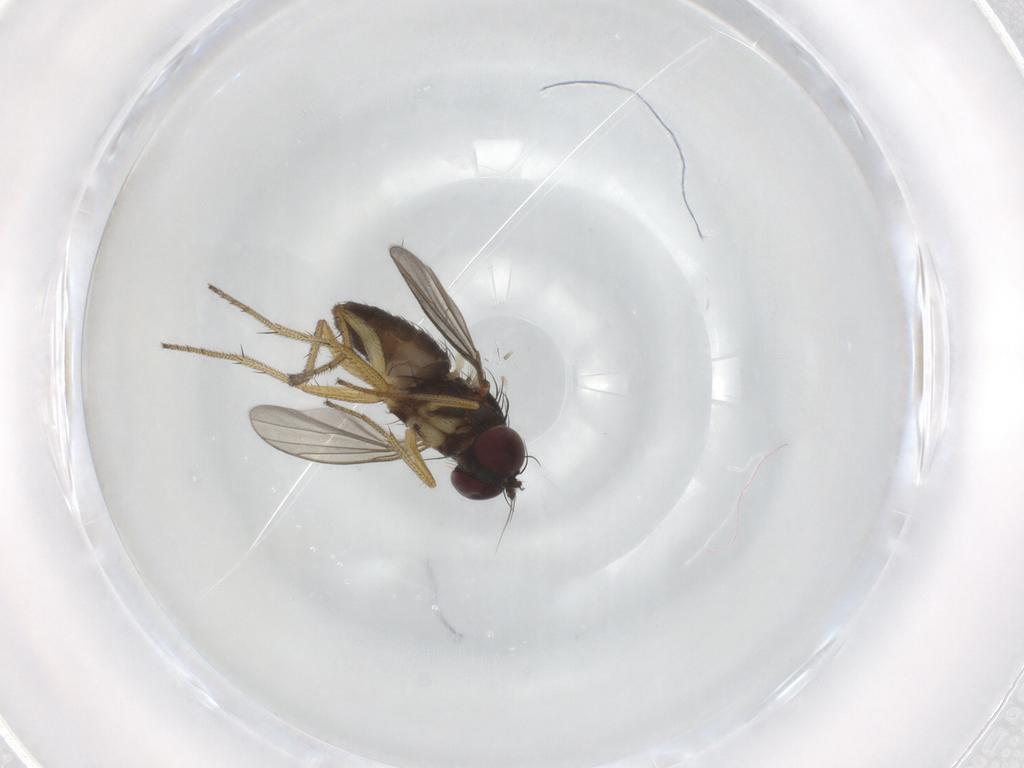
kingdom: Animalia
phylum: Arthropoda
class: Insecta
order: Diptera
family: Dolichopodidae
